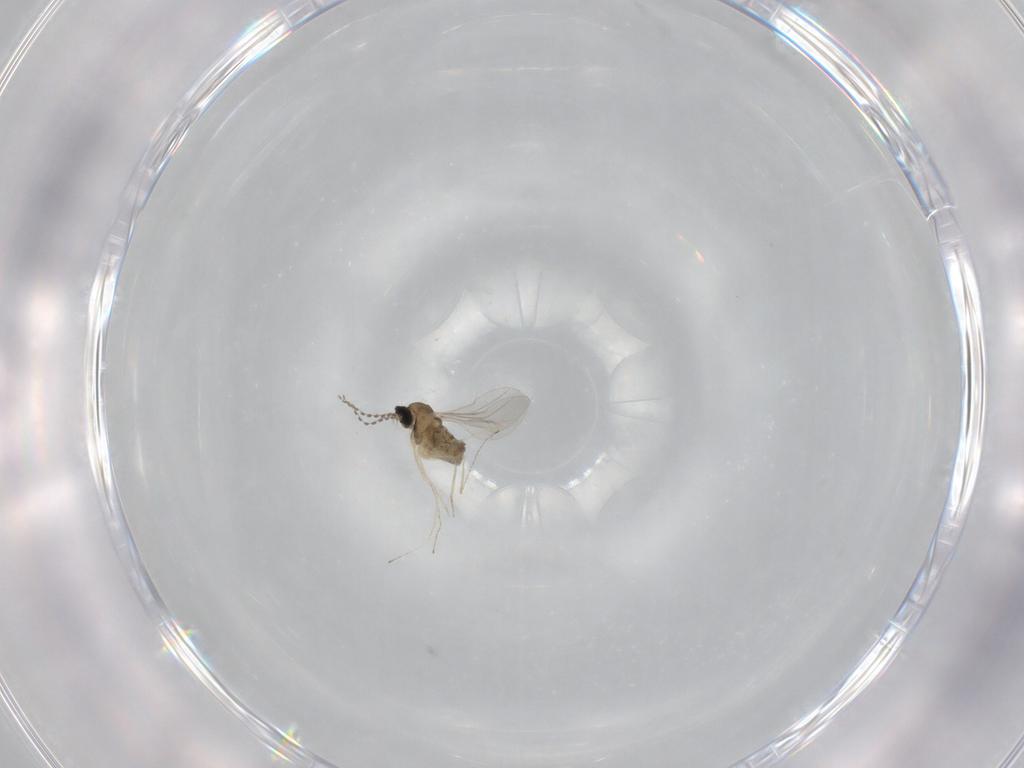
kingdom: Animalia
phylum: Arthropoda
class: Insecta
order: Diptera
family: Cecidomyiidae
